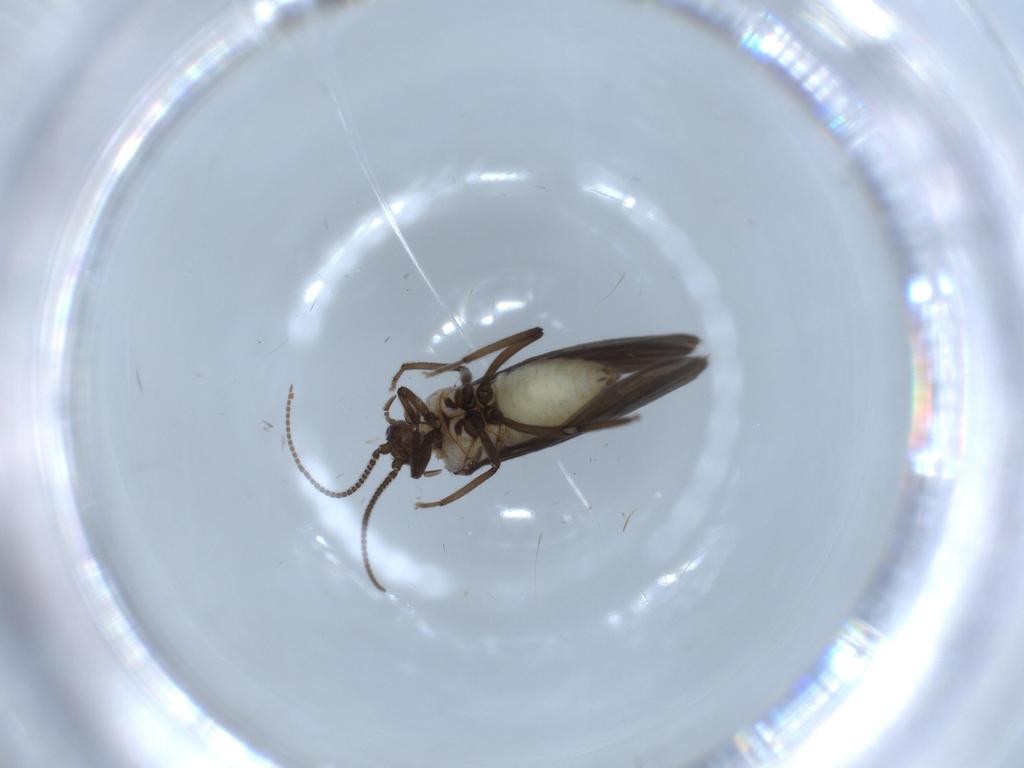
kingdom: Animalia
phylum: Arthropoda
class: Insecta
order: Neuroptera
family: Coniopterygidae
